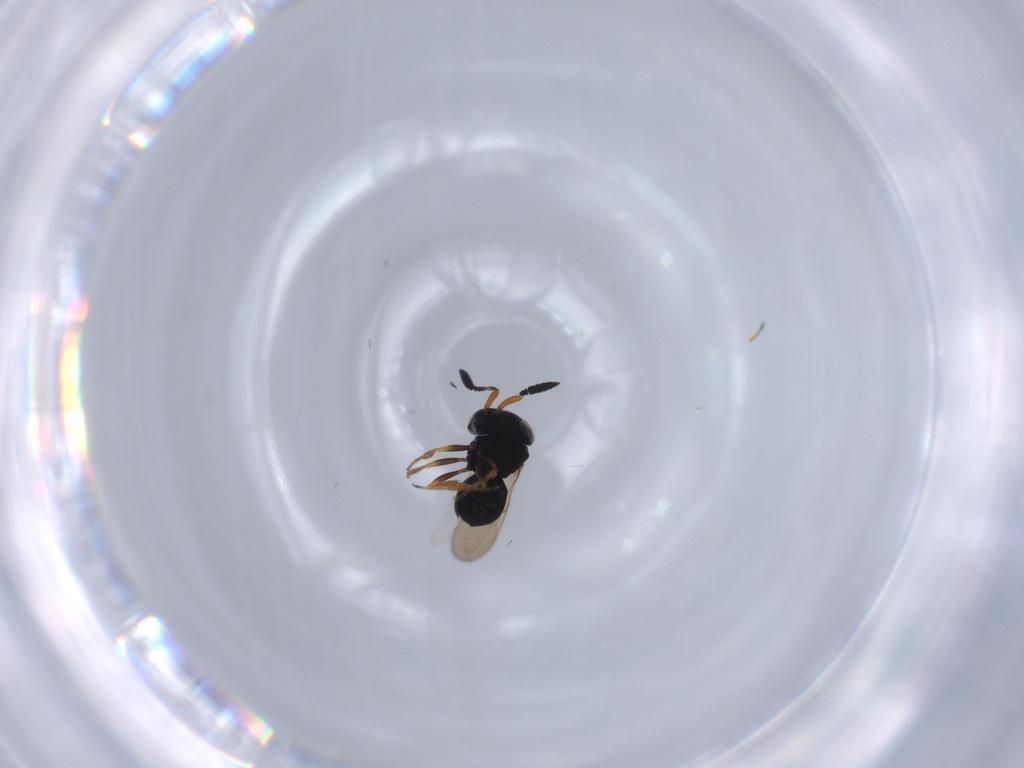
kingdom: Animalia
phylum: Arthropoda
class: Insecta
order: Hymenoptera
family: Scelionidae
